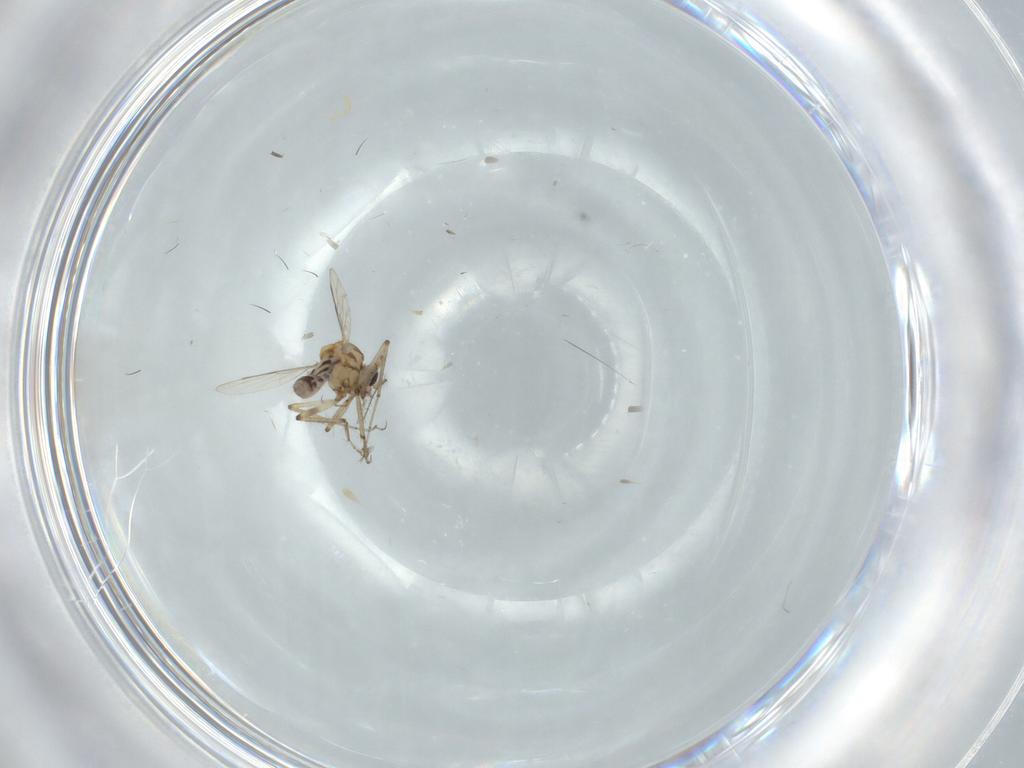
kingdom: Animalia
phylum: Arthropoda
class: Insecta
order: Diptera
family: Ceratopogonidae
